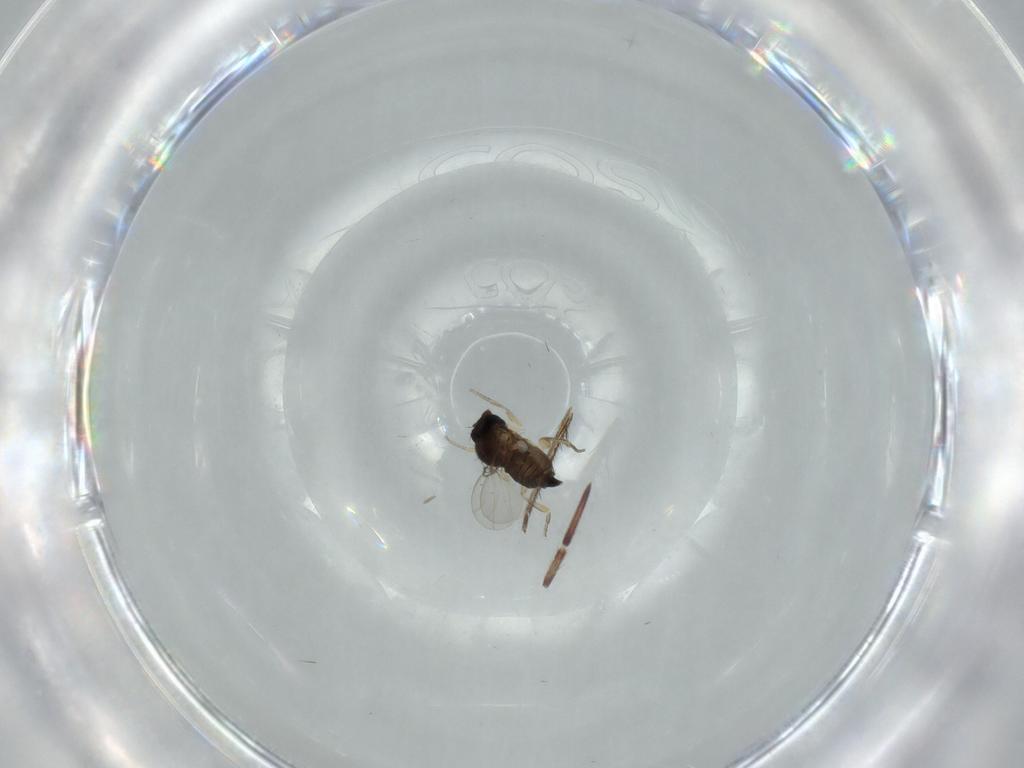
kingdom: Animalia
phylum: Arthropoda
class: Insecta
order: Diptera
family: Phoridae
